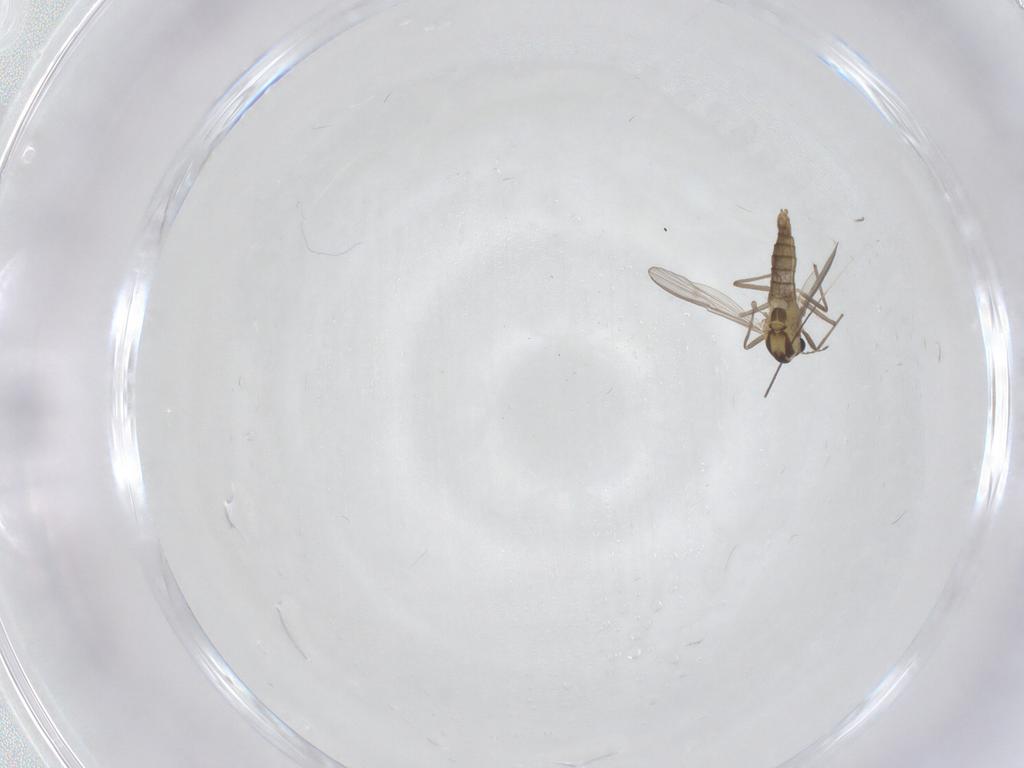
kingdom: Animalia
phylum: Arthropoda
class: Insecta
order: Diptera
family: Chironomidae
